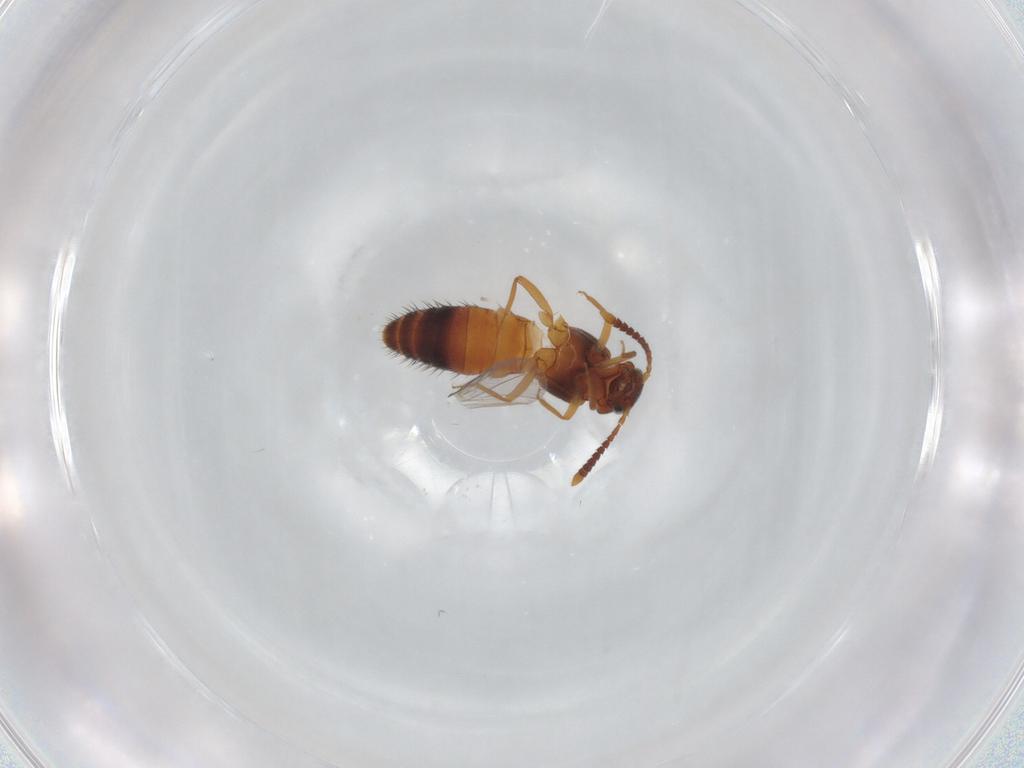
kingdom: Animalia
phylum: Arthropoda
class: Insecta
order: Coleoptera
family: Staphylinidae
